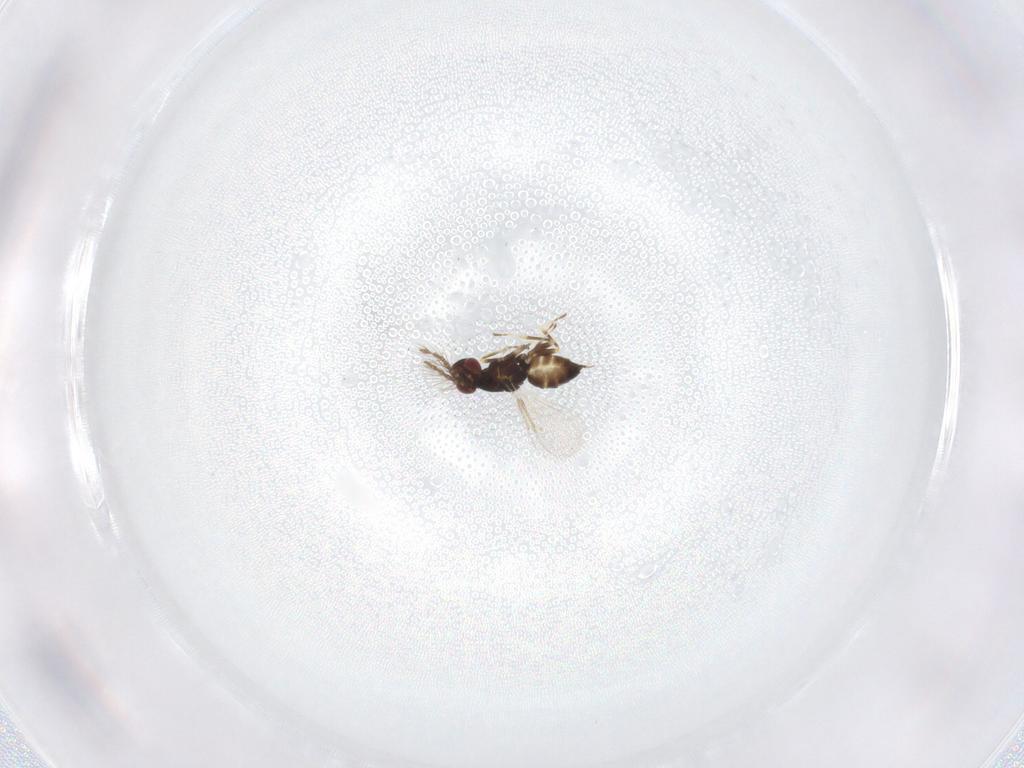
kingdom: Animalia
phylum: Arthropoda
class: Insecta
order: Hymenoptera
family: Eulophidae
